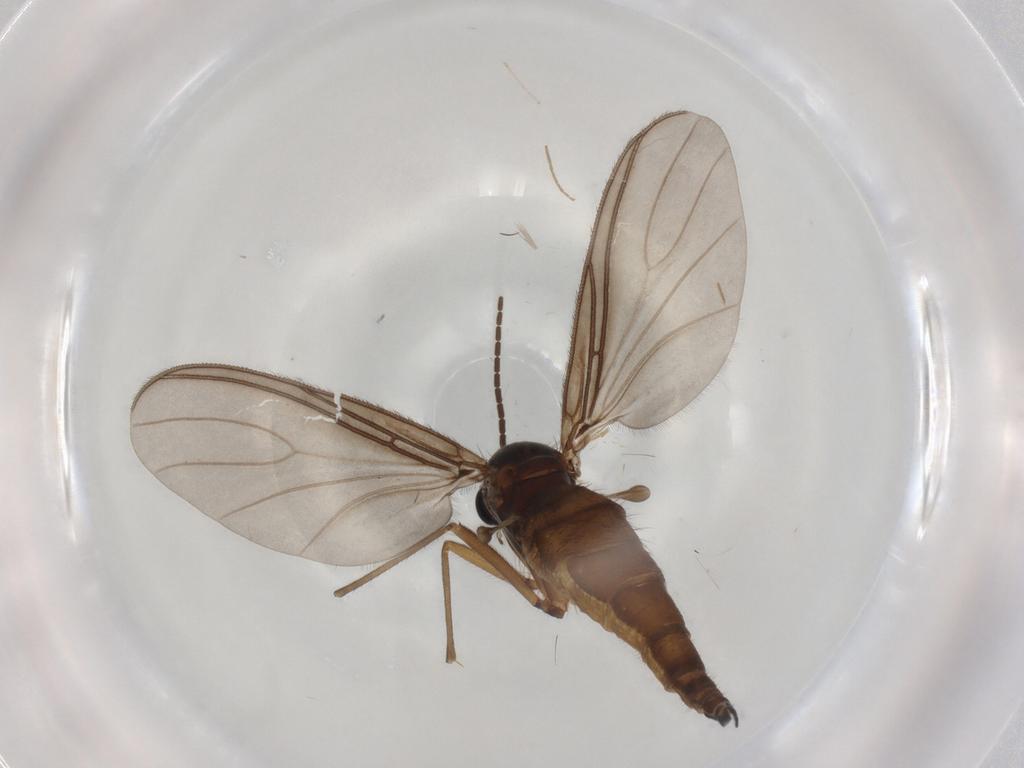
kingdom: Animalia
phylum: Arthropoda
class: Insecta
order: Diptera
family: Sciaridae
